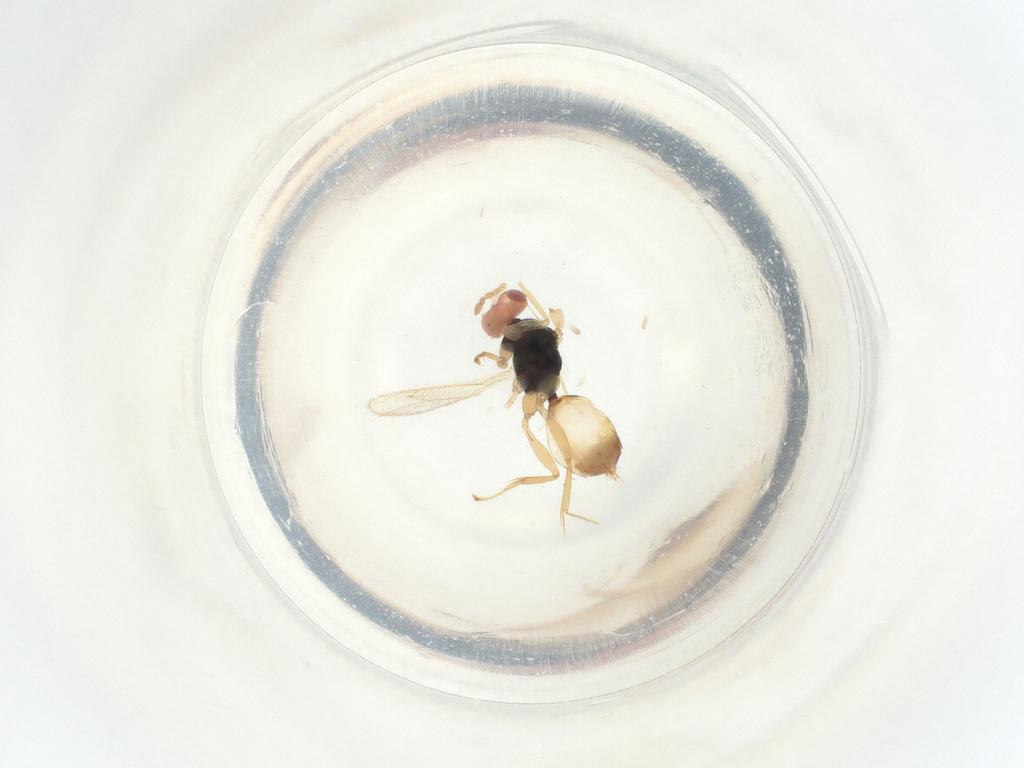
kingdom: Animalia
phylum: Arthropoda
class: Insecta
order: Hymenoptera
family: Eulophidae
